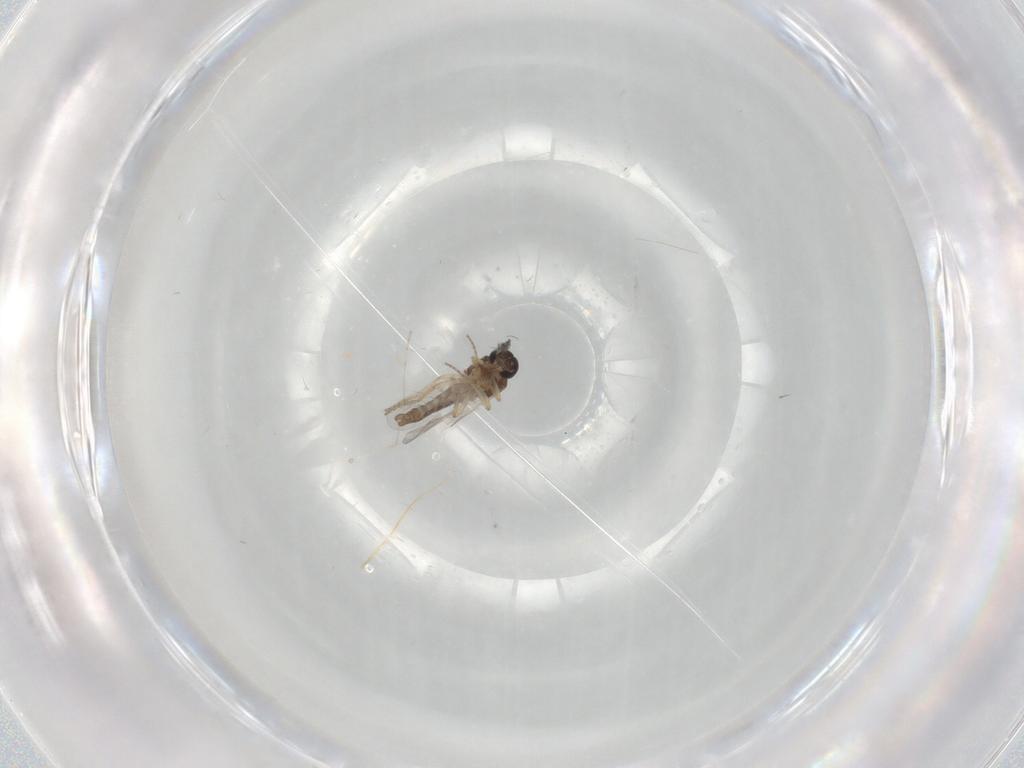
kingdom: Animalia
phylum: Arthropoda
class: Insecta
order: Diptera
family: Ceratopogonidae
